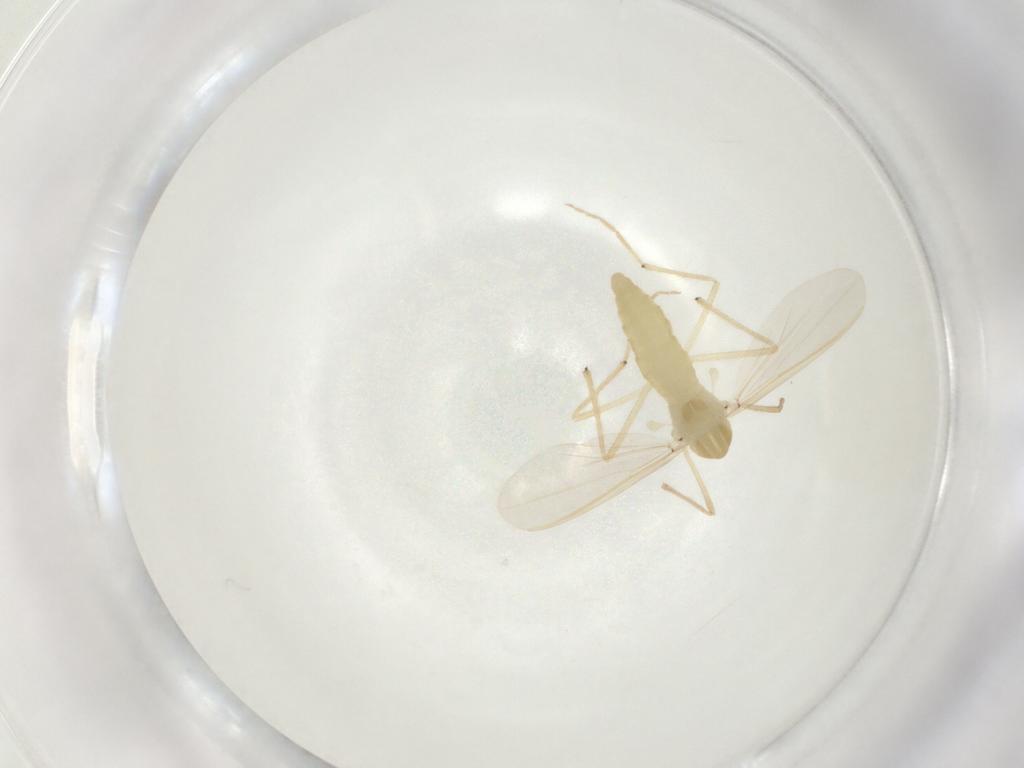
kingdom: Animalia
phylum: Arthropoda
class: Insecta
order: Diptera
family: Chironomidae
